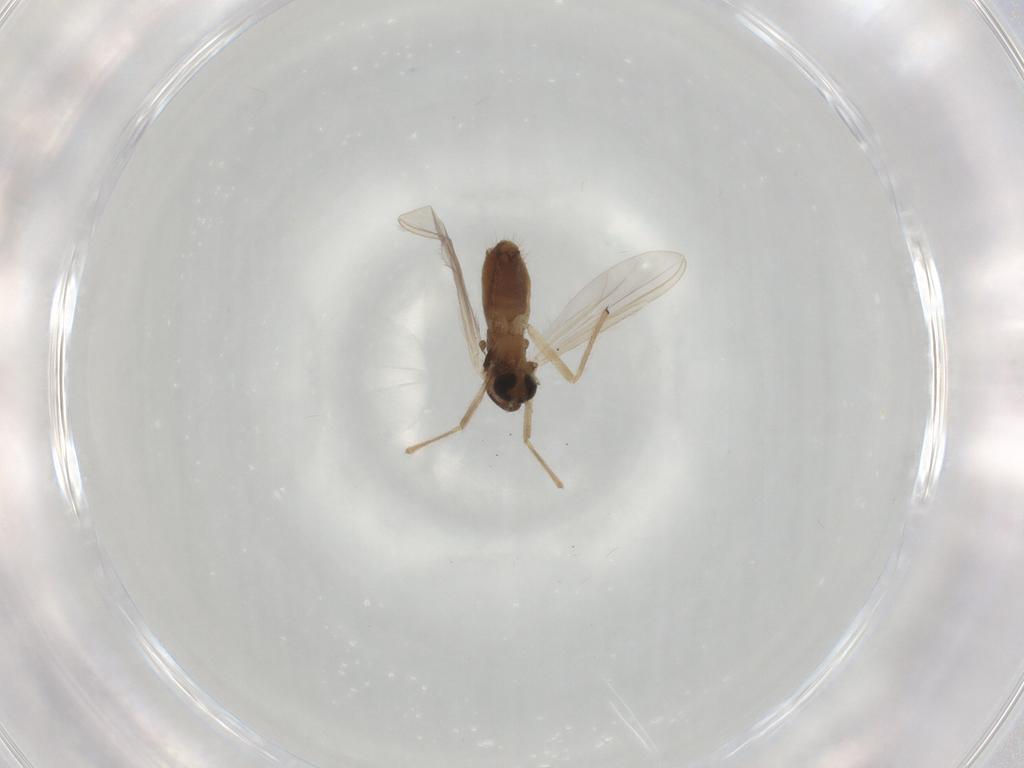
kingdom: Animalia
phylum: Arthropoda
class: Insecta
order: Diptera
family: Chironomidae
